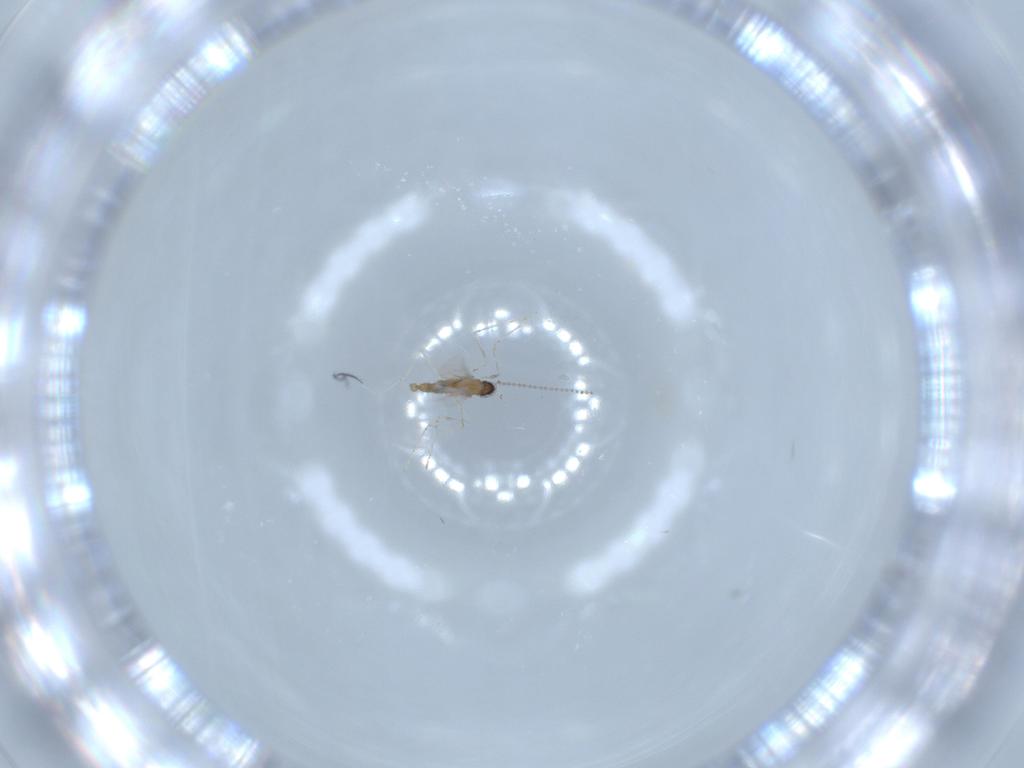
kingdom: Animalia
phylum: Arthropoda
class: Insecta
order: Diptera
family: Cecidomyiidae
